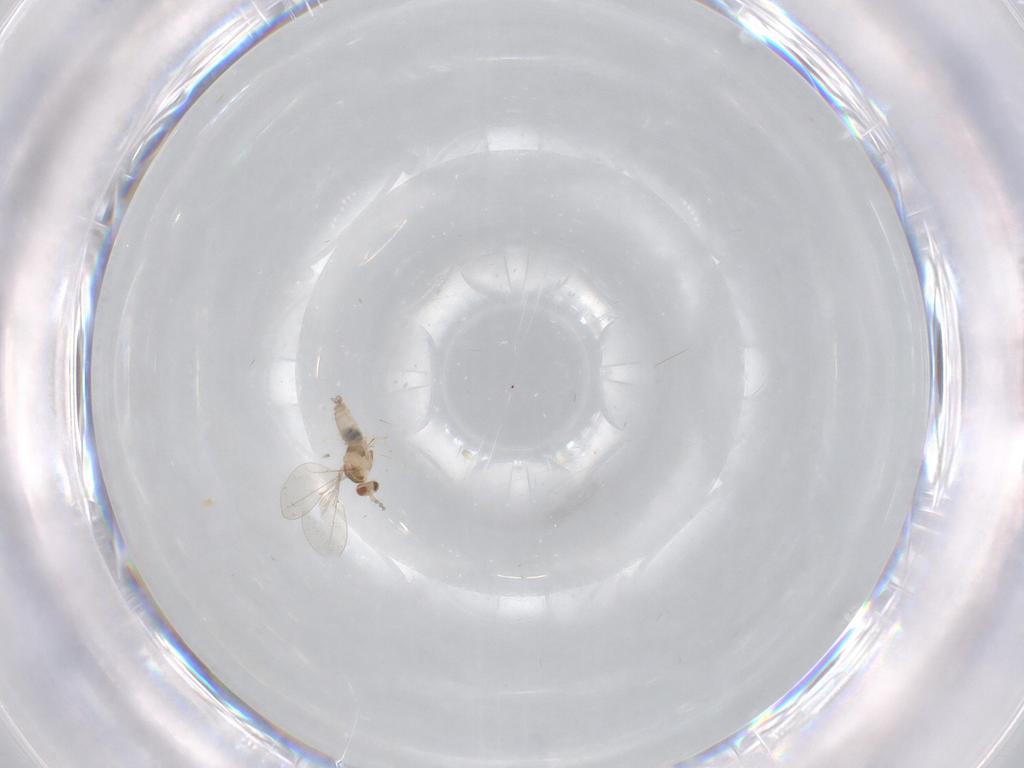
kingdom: Animalia
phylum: Arthropoda
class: Insecta
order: Diptera
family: Cecidomyiidae
